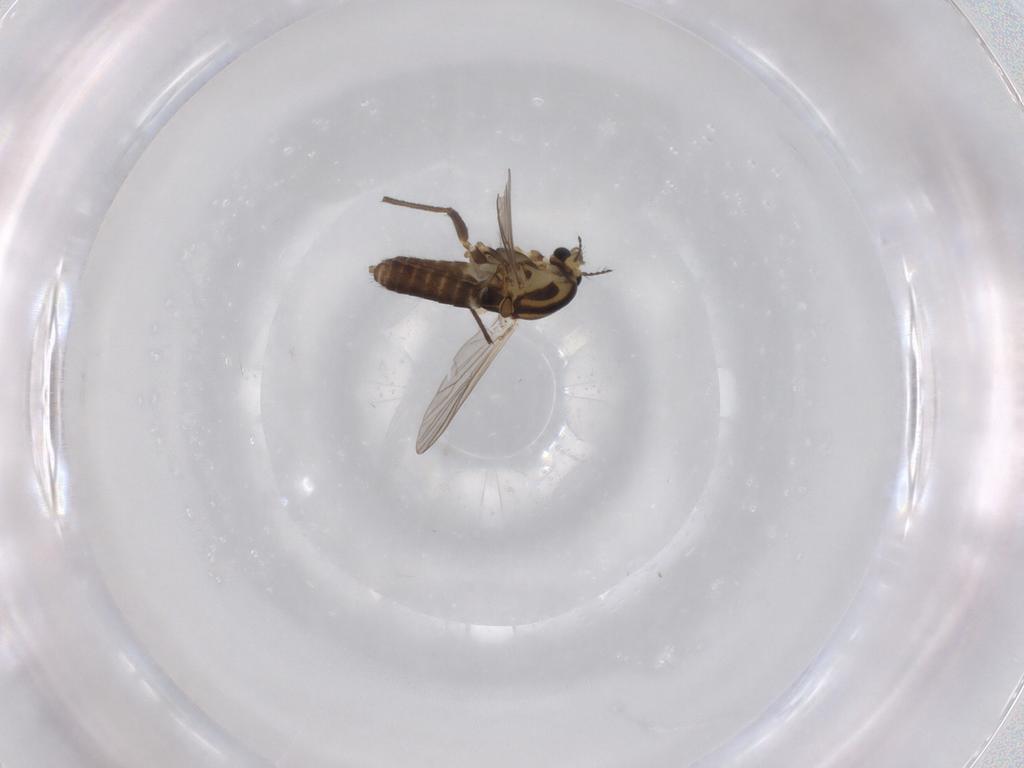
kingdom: Animalia
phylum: Arthropoda
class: Insecta
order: Diptera
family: Chironomidae
